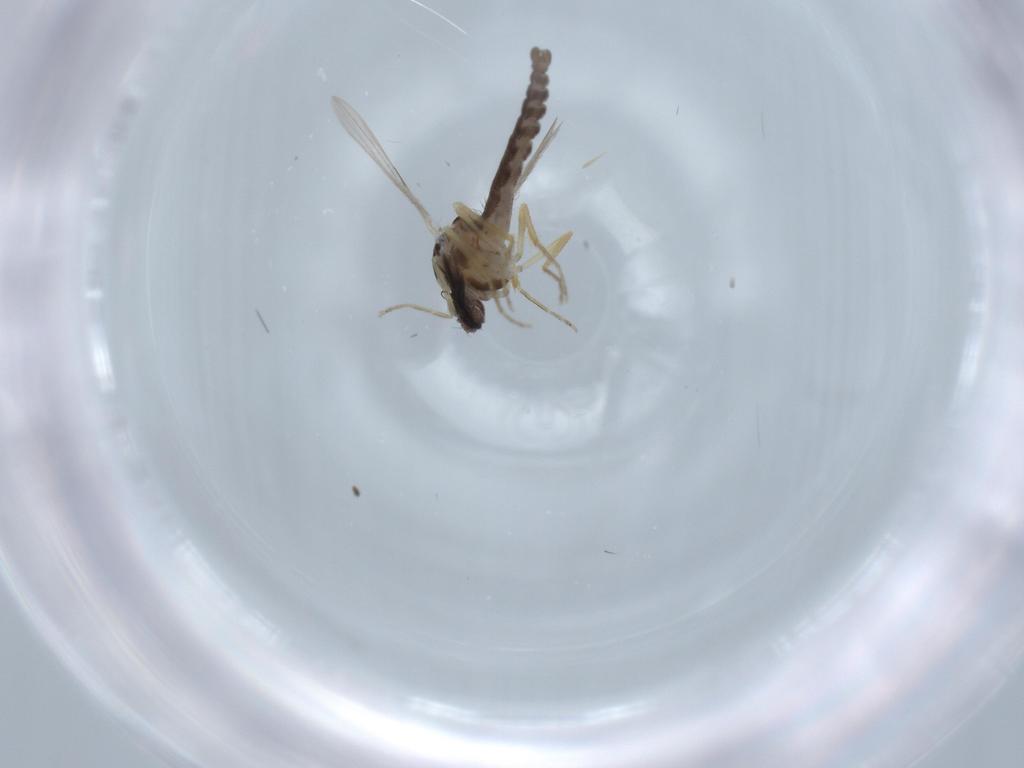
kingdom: Animalia
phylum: Arthropoda
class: Insecta
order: Diptera
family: Ceratopogonidae
